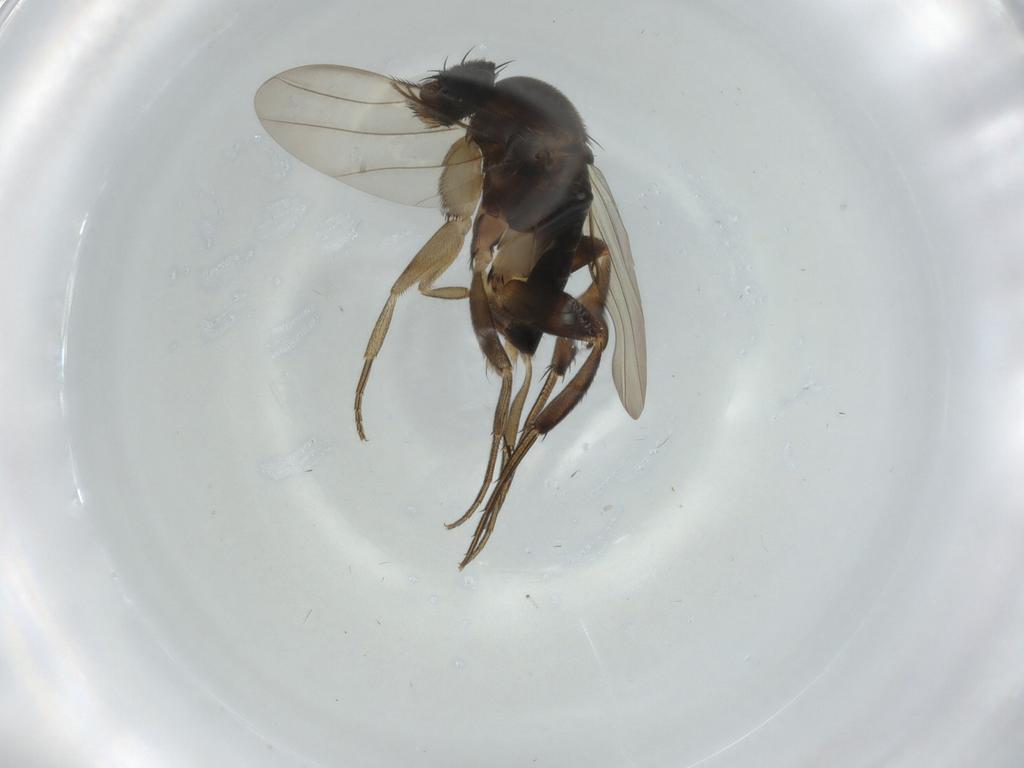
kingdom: Animalia
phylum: Arthropoda
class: Insecta
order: Diptera
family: Phoridae
